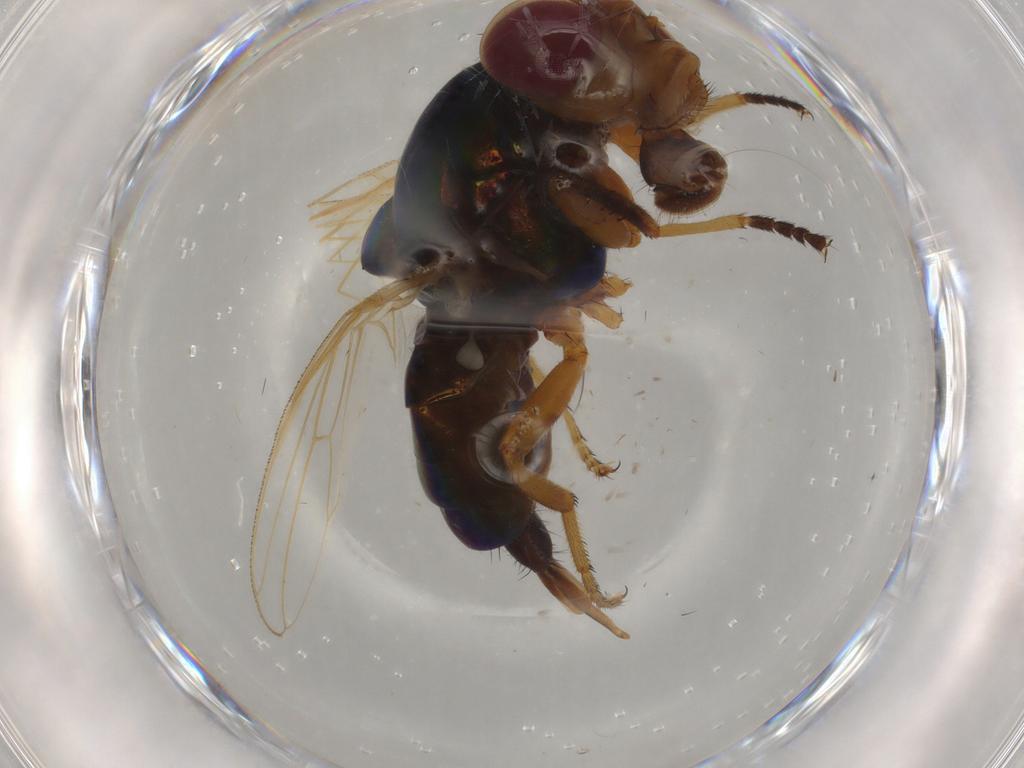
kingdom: Animalia
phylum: Arthropoda
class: Insecta
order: Diptera
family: Ulidiidae
